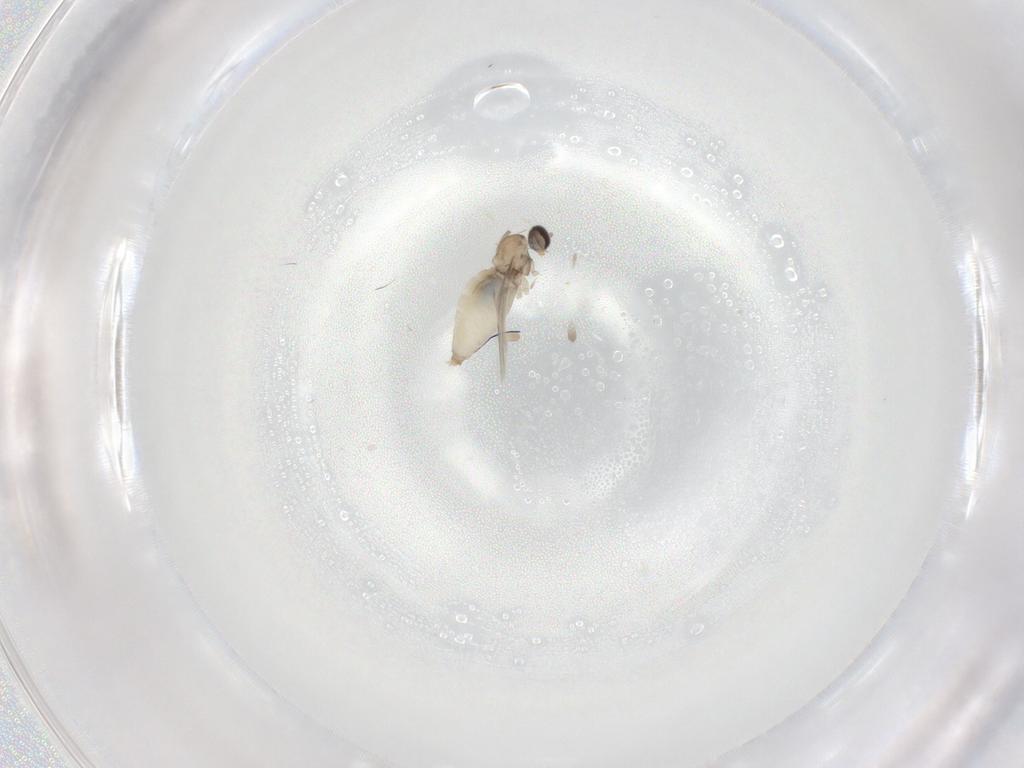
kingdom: Animalia
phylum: Arthropoda
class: Insecta
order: Diptera
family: Cecidomyiidae
